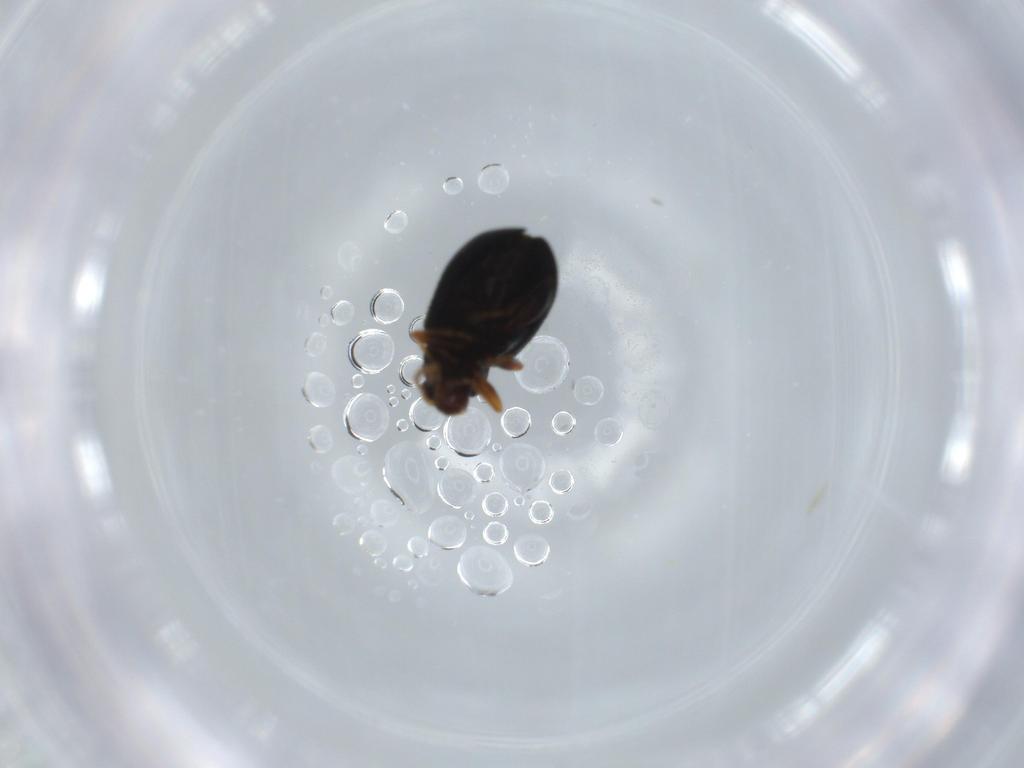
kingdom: Animalia
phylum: Arthropoda
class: Insecta
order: Coleoptera
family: Chrysomelidae
